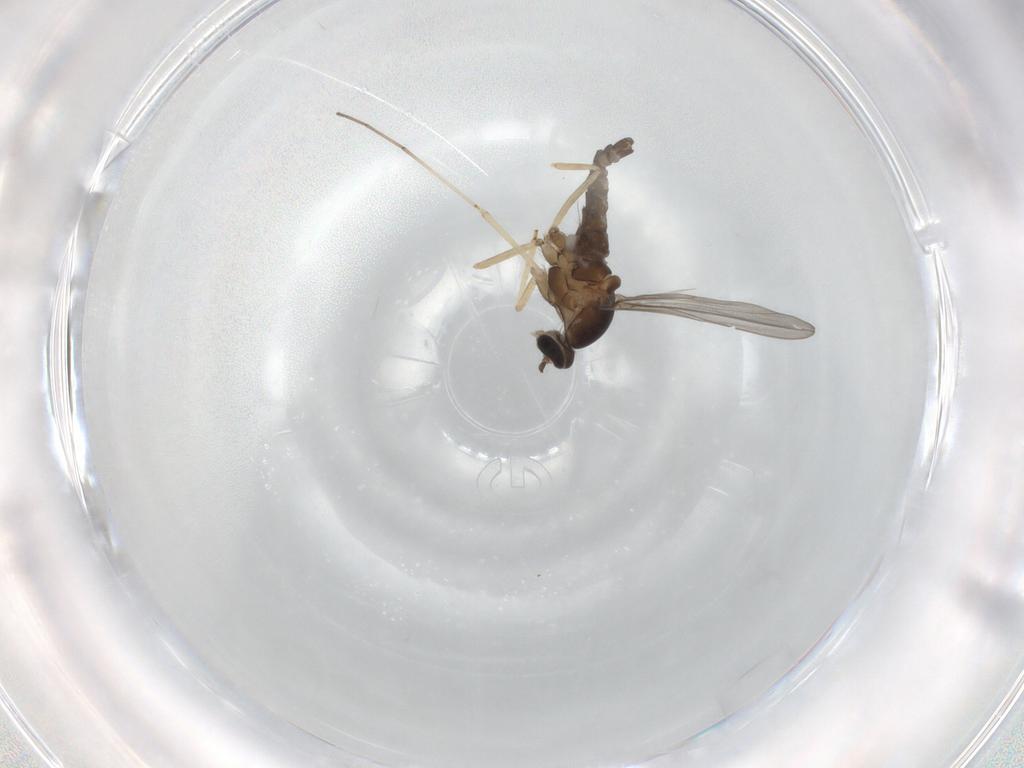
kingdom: Animalia
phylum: Arthropoda
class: Insecta
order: Diptera
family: Cecidomyiidae
